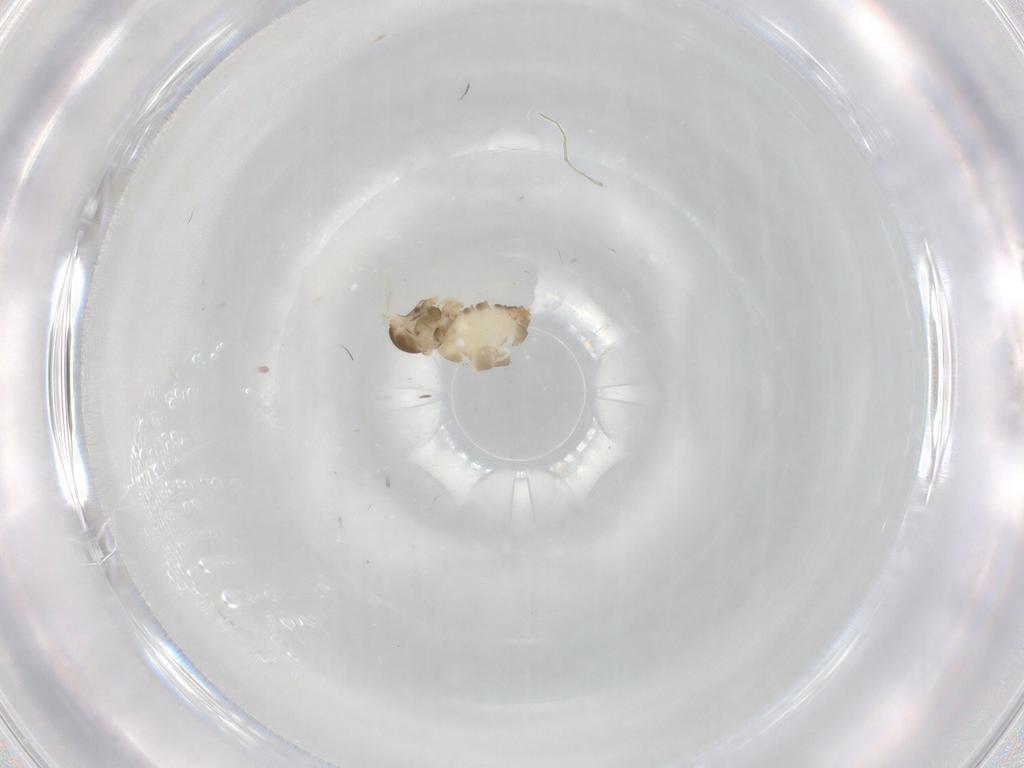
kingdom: Animalia
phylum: Arthropoda
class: Insecta
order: Diptera
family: Cecidomyiidae
